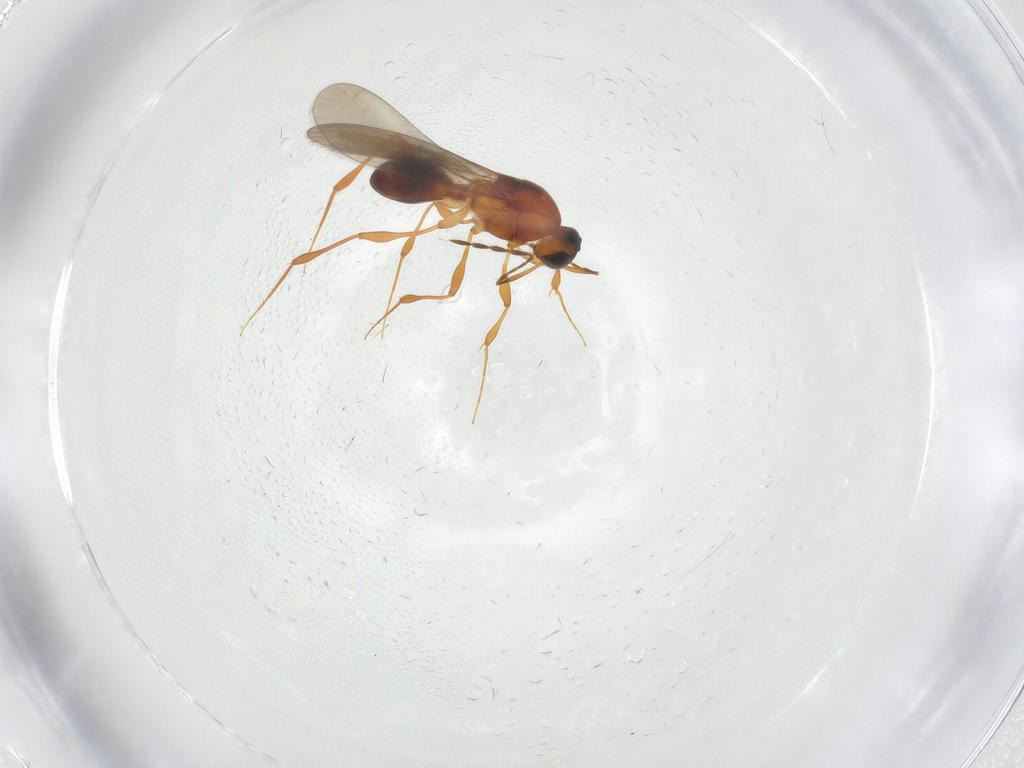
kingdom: Animalia
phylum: Arthropoda
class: Insecta
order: Hymenoptera
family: Platygastridae
